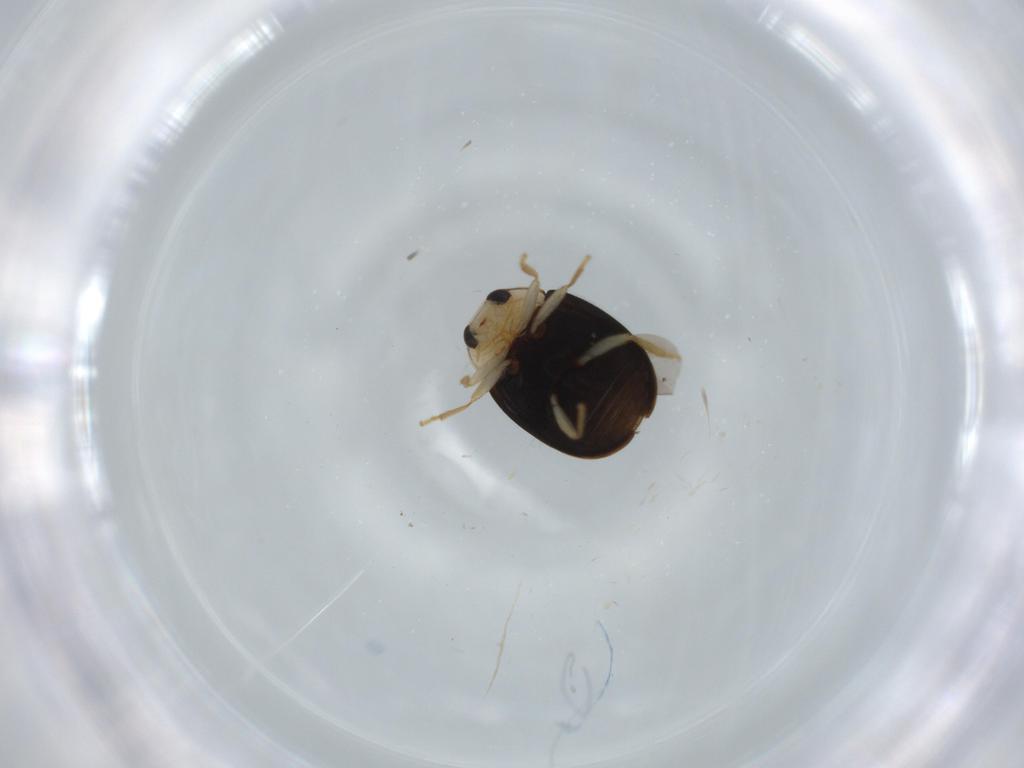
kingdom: Animalia
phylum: Arthropoda
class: Insecta
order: Coleoptera
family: Coccinellidae
